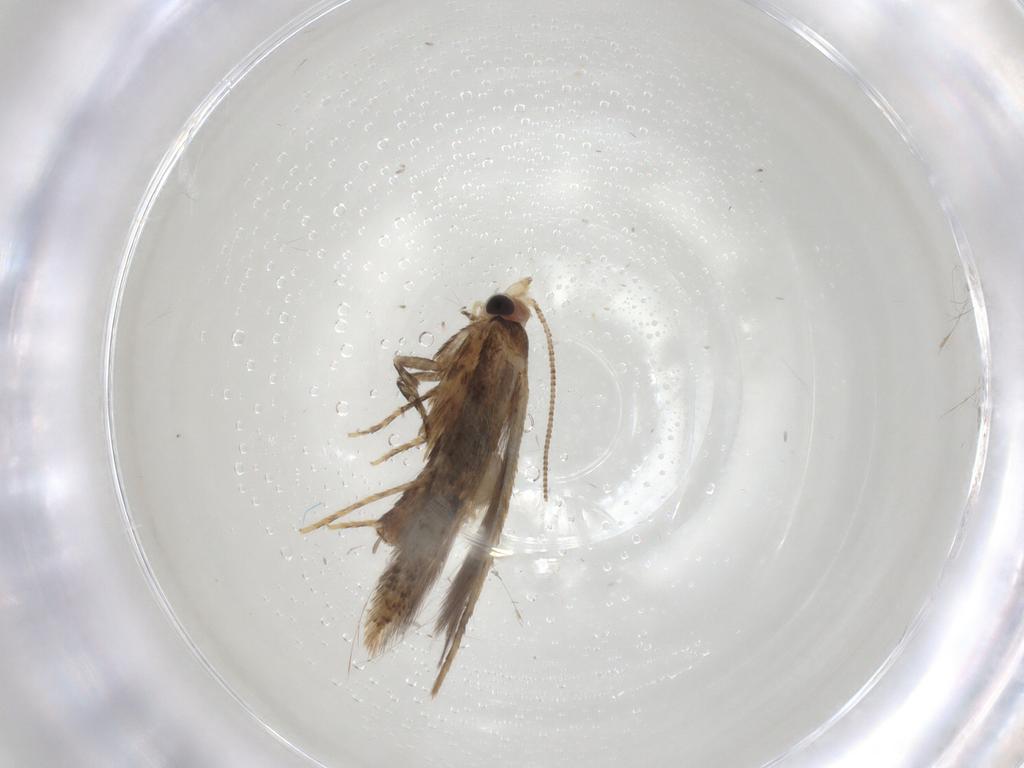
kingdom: Animalia
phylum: Arthropoda
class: Insecta
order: Lepidoptera
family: Tineidae
